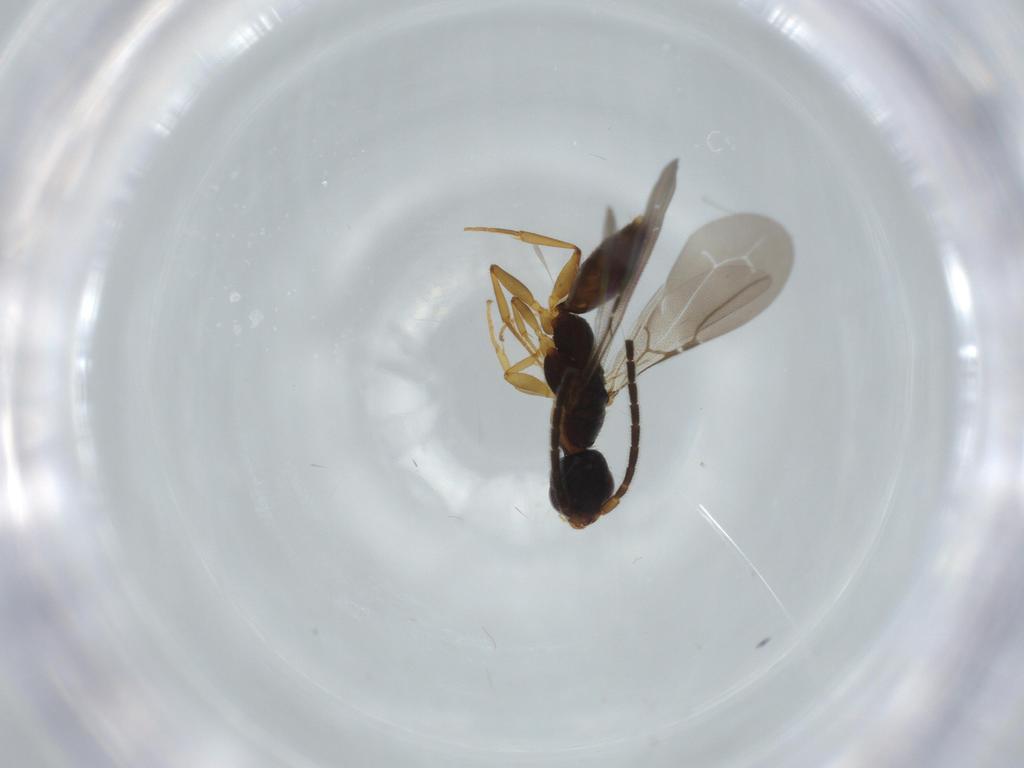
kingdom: Animalia
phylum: Arthropoda
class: Insecta
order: Hymenoptera
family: Bethylidae
